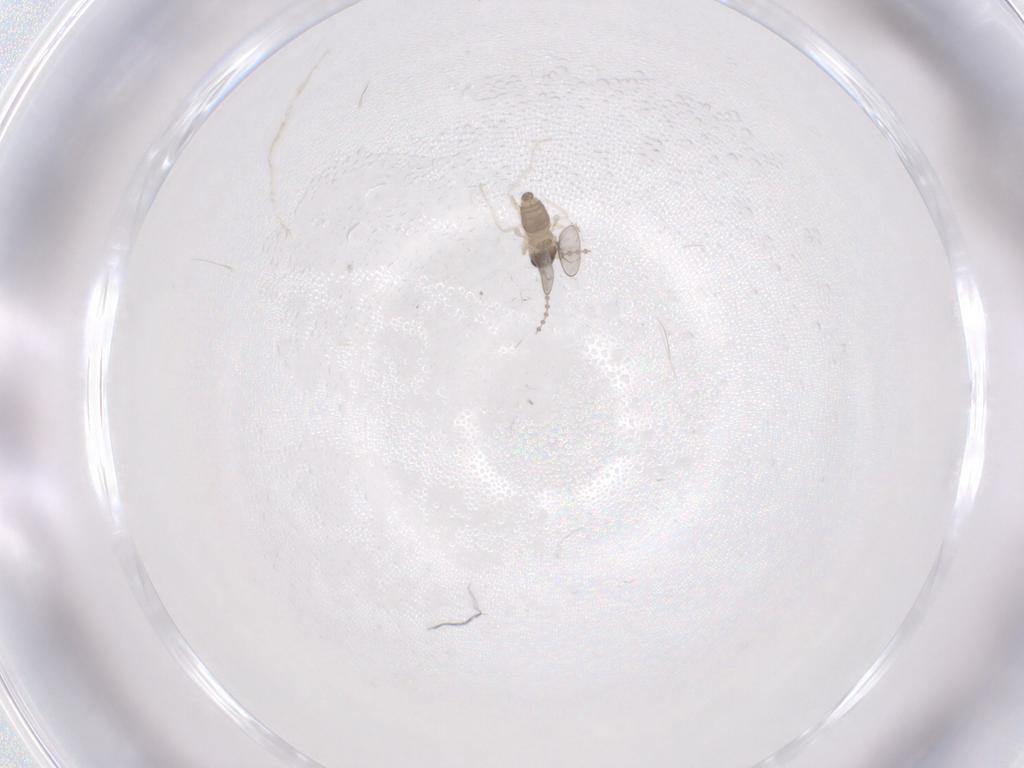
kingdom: Animalia
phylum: Arthropoda
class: Insecta
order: Diptera
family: Cecidomyiidae
